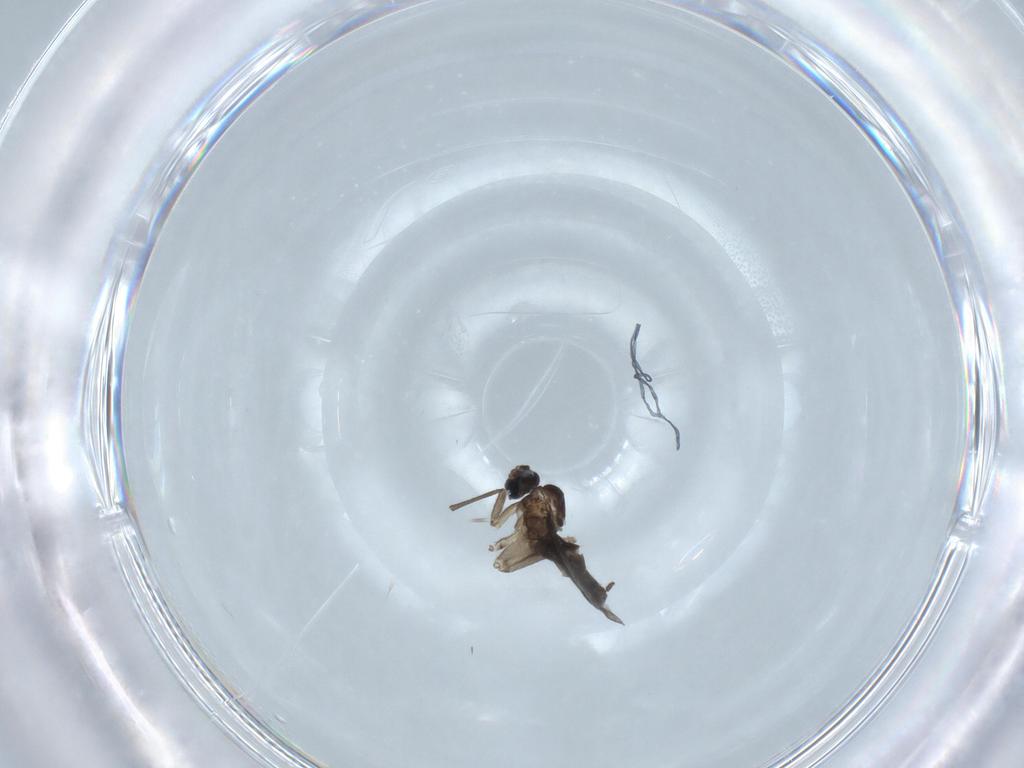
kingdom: Animalia
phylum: Arthropoda
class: Insecta
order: Diptera
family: Sciaridae
